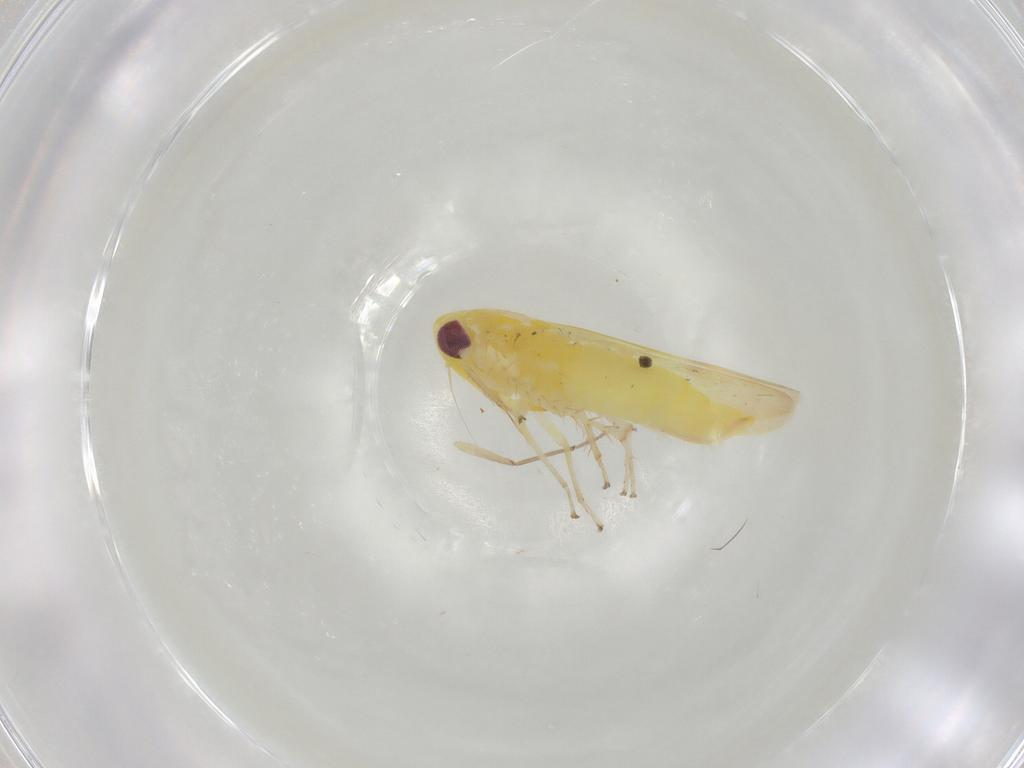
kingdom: Animalia
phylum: Arthropoda
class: Insecta
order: Hemiptera
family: Cicadellidae
